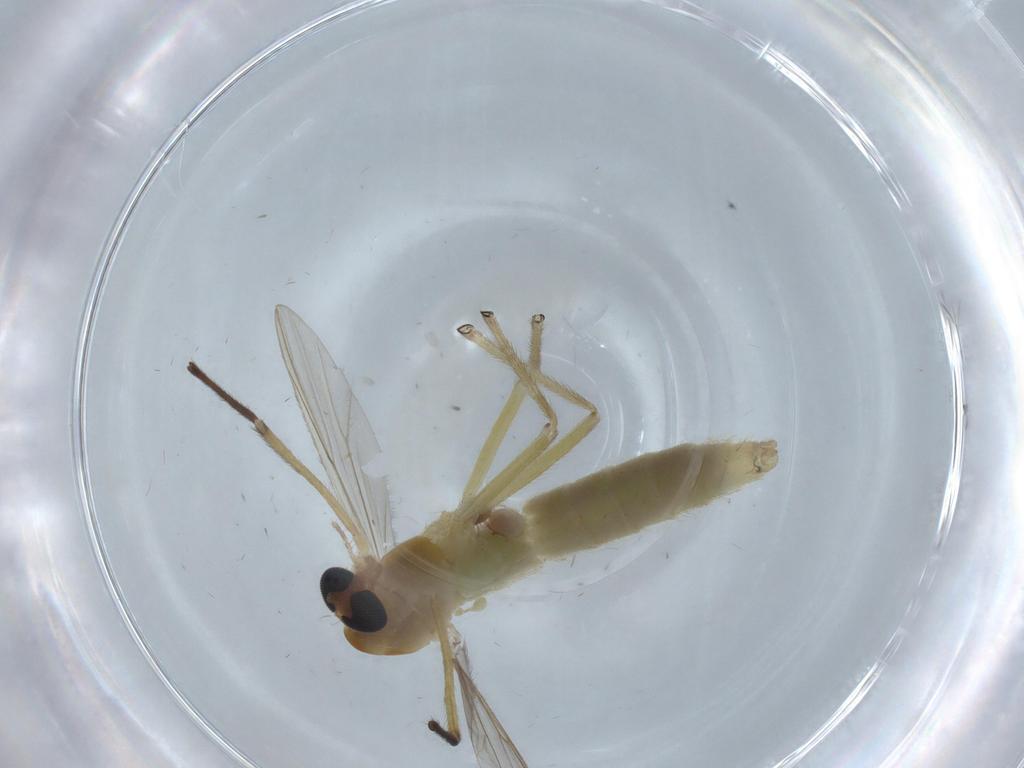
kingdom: Animalia
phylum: Arthropoda
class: Insecta
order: Diptera
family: Chironomidae
